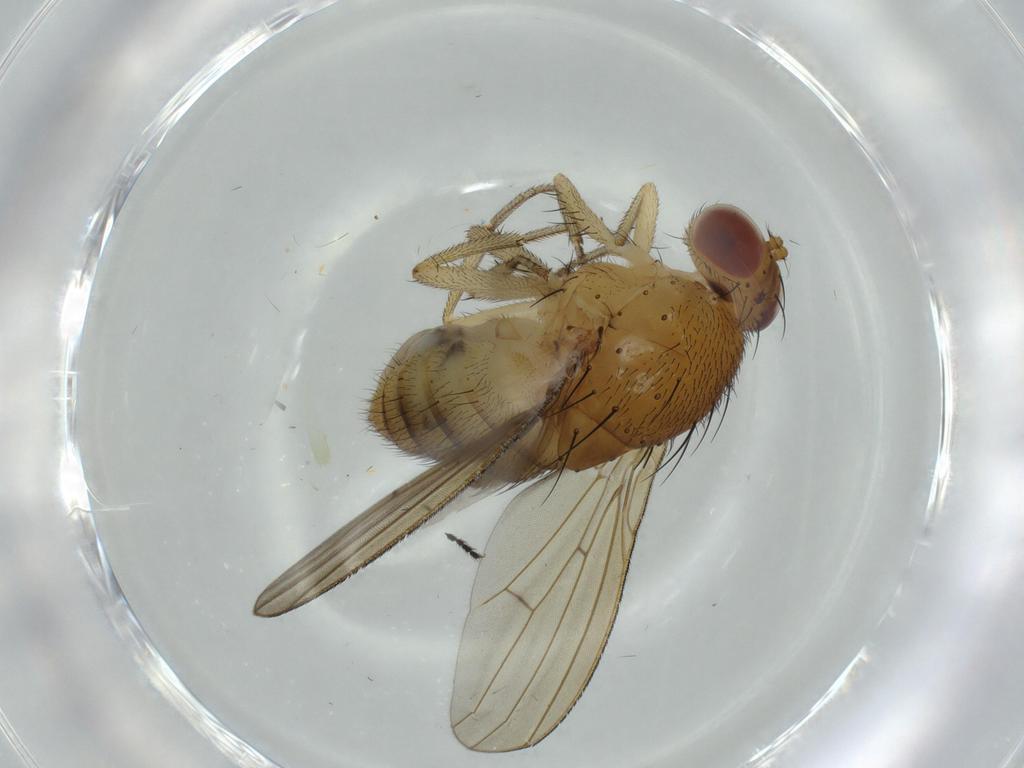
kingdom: Animalia
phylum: Arthropoda
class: Insecta
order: Diptera
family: Milichiidae
